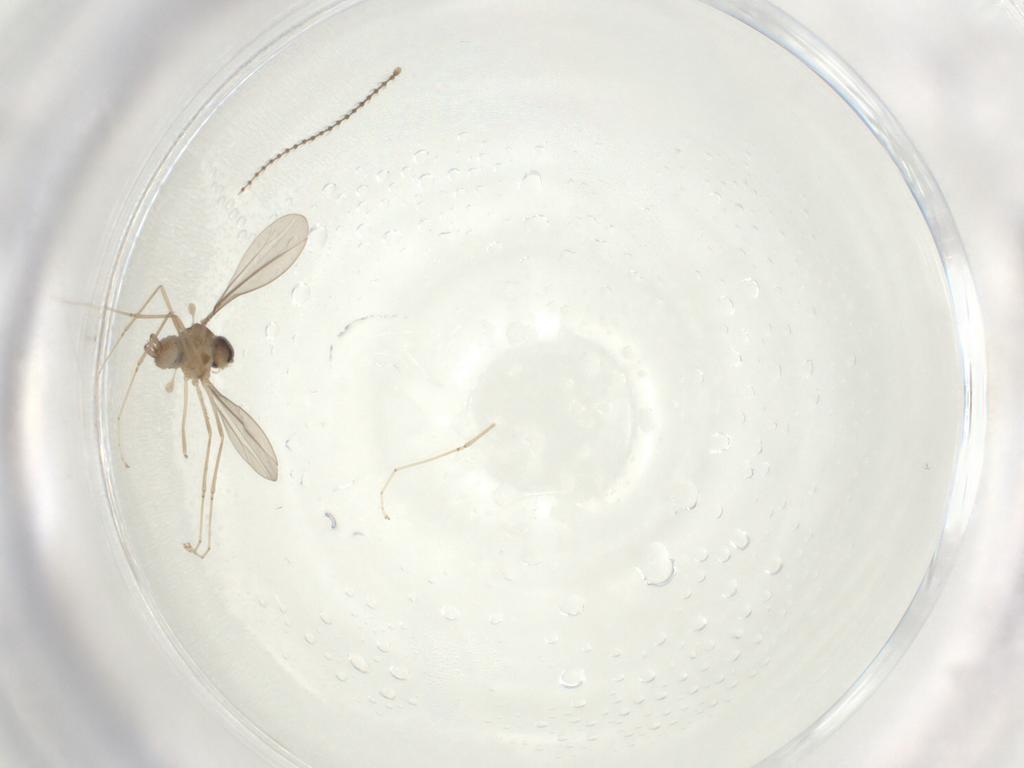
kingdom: Animalia
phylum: Arthropoda
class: Insecta
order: Diptera
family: Cecidomyiidae
